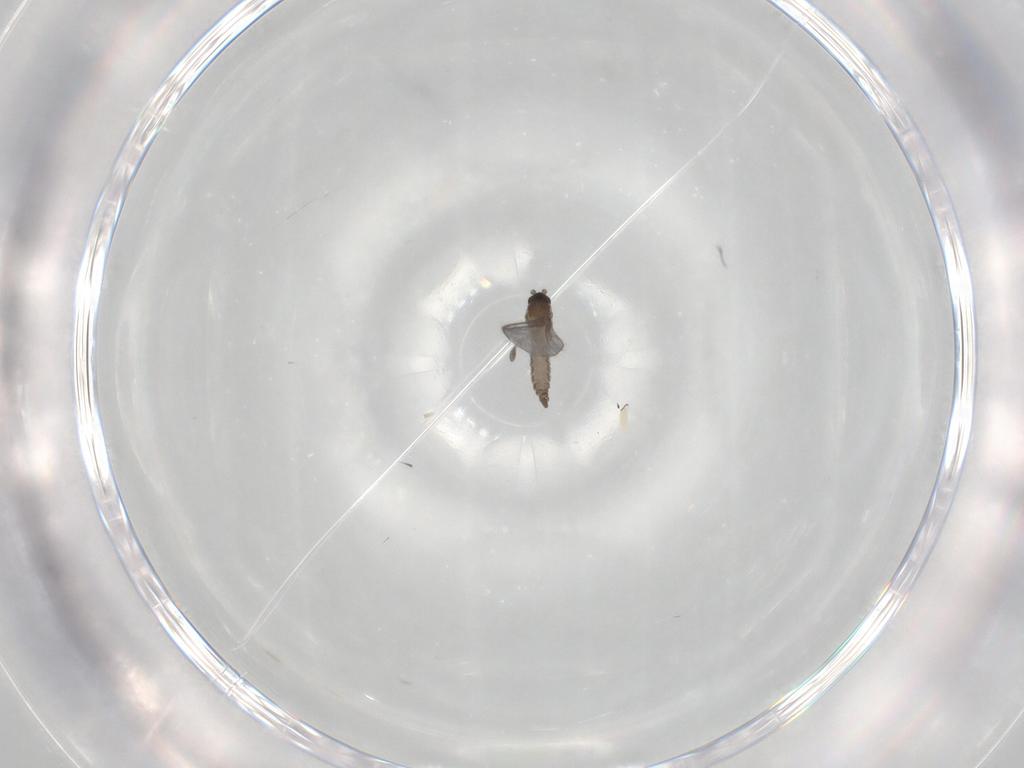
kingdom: Animalia
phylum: Arthropoda
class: Insecta
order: Diptera
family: Sciaridae
